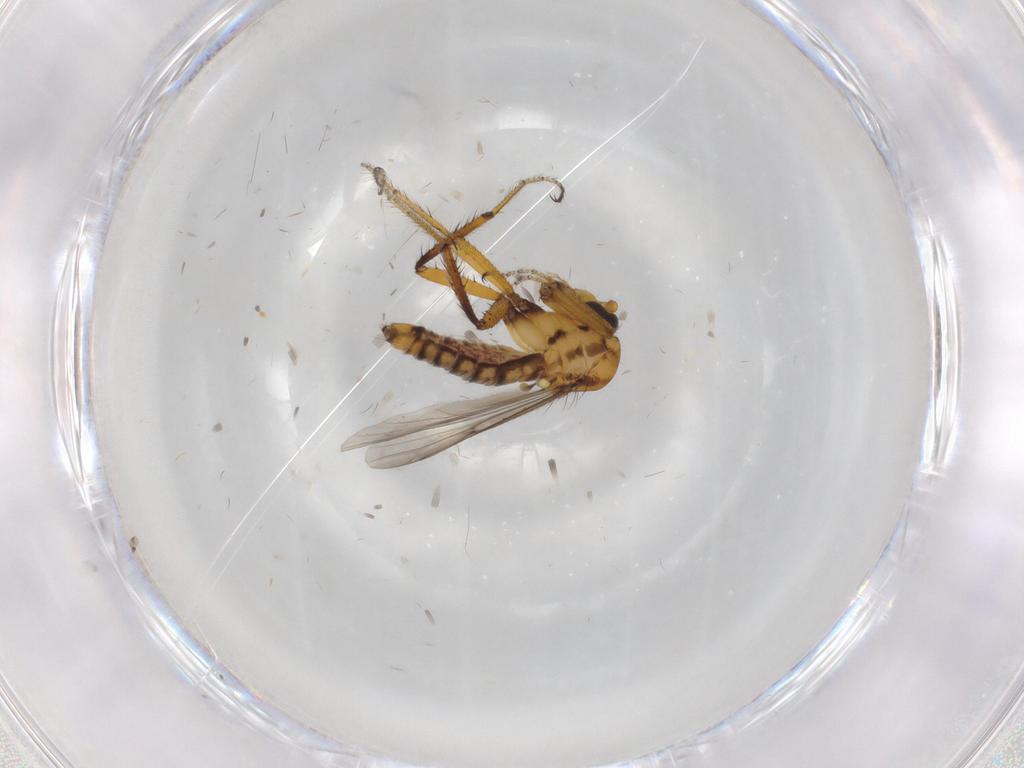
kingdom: Animalia
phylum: Arthropoda
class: Insecta
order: Diptera
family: Ceratopogonidae
